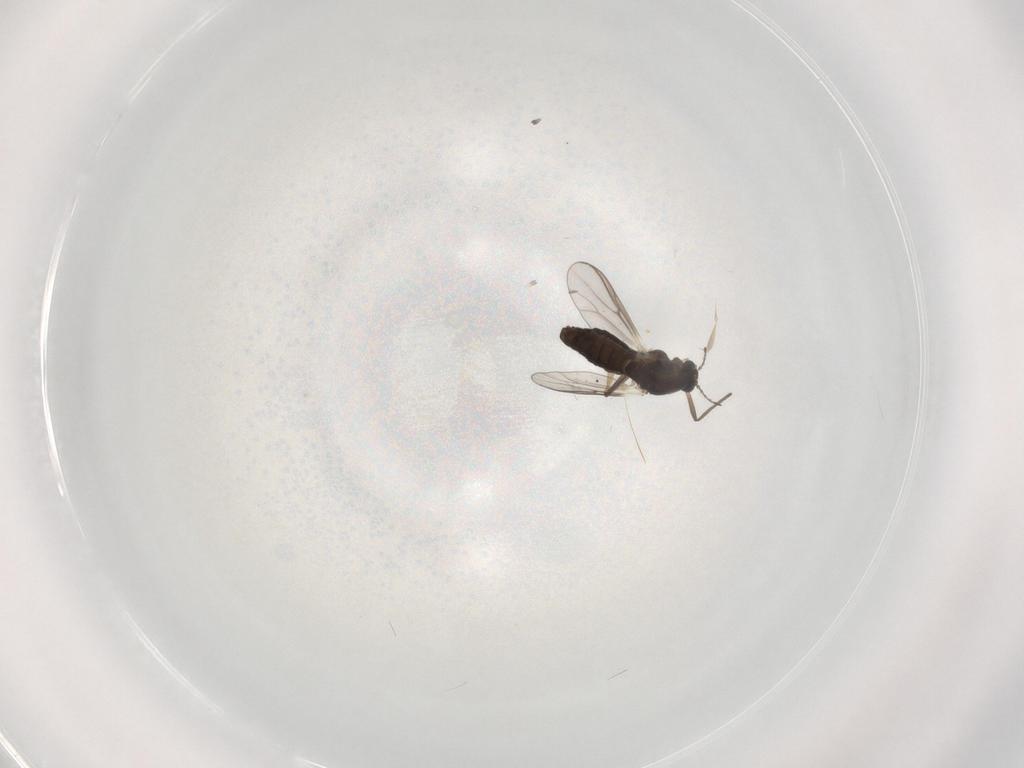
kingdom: Animalia
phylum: Arthropoda
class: Insecta
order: Diptera
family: Chironomidae
